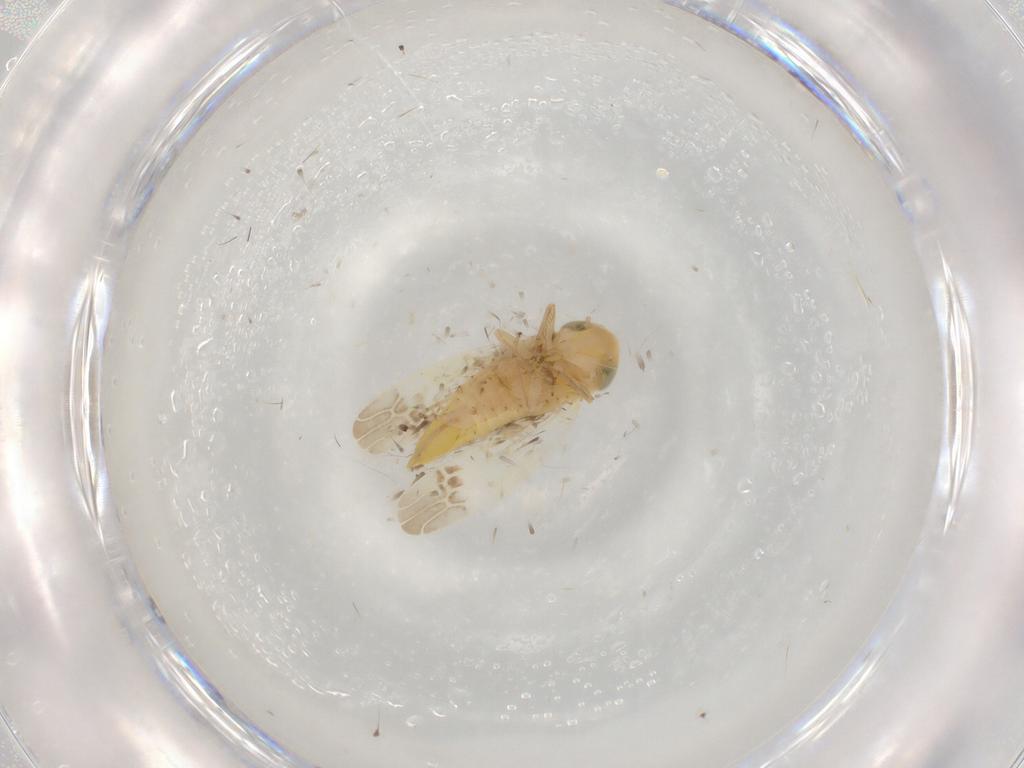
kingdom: Animalia
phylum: Arthropoda
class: Insecta
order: Hemiptera
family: Cicadellidae
